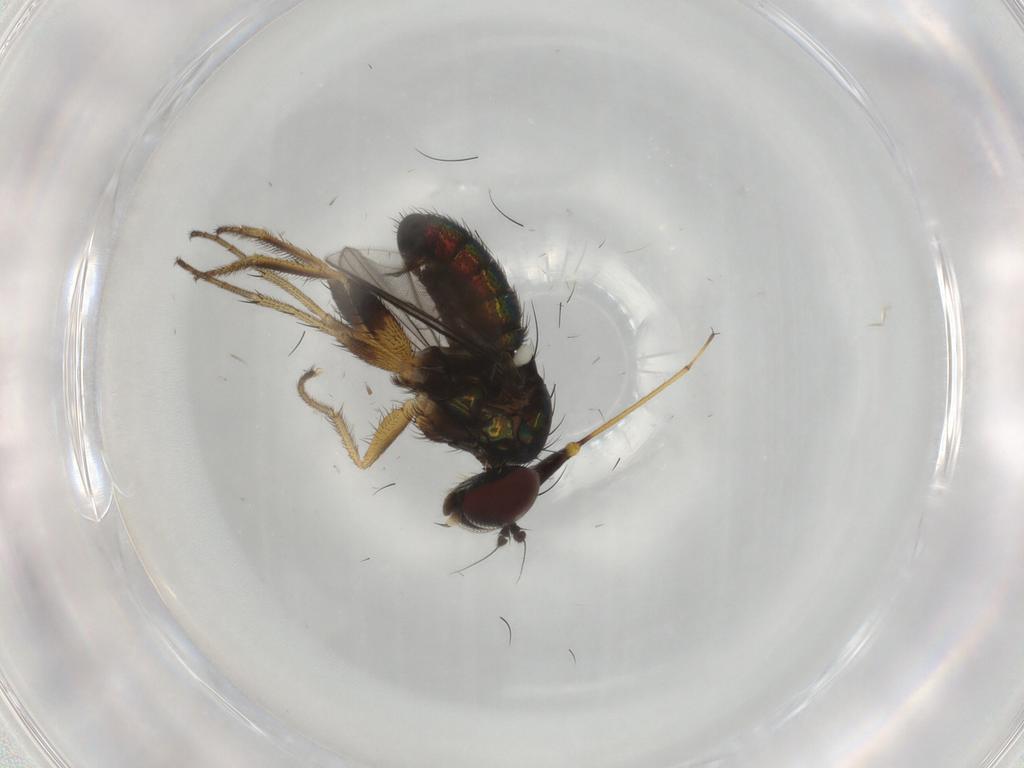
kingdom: Animalia
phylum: Arthropoda
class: Insecta
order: Diptera
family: Dolichopodidae
